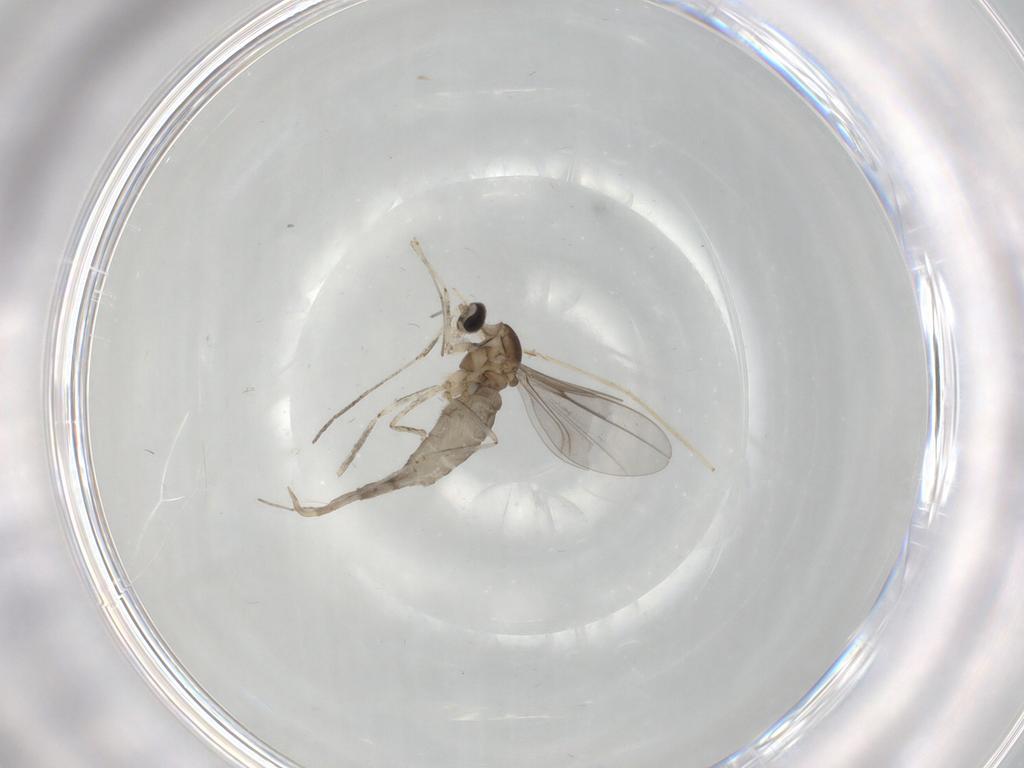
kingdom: Animalia
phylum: Arthropoda
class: Insecta
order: Diptera
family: Cecidomyiidae
